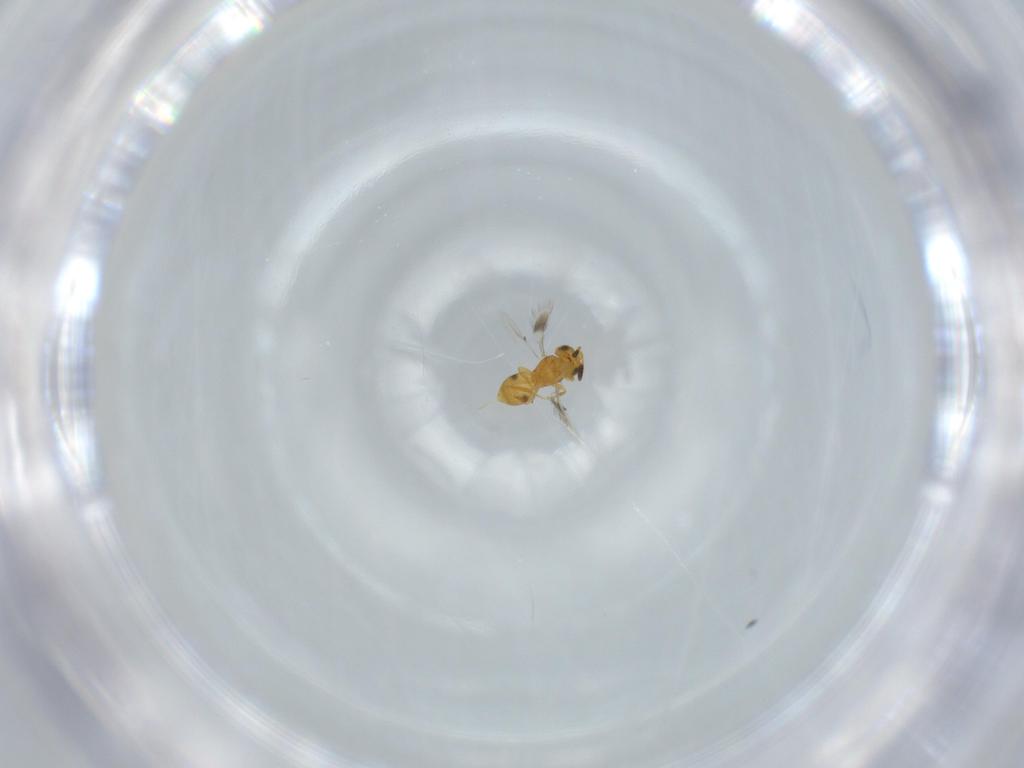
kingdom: Animalia
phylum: Arthropoda
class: Insecta
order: Hymenoptera
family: Scelionidae
